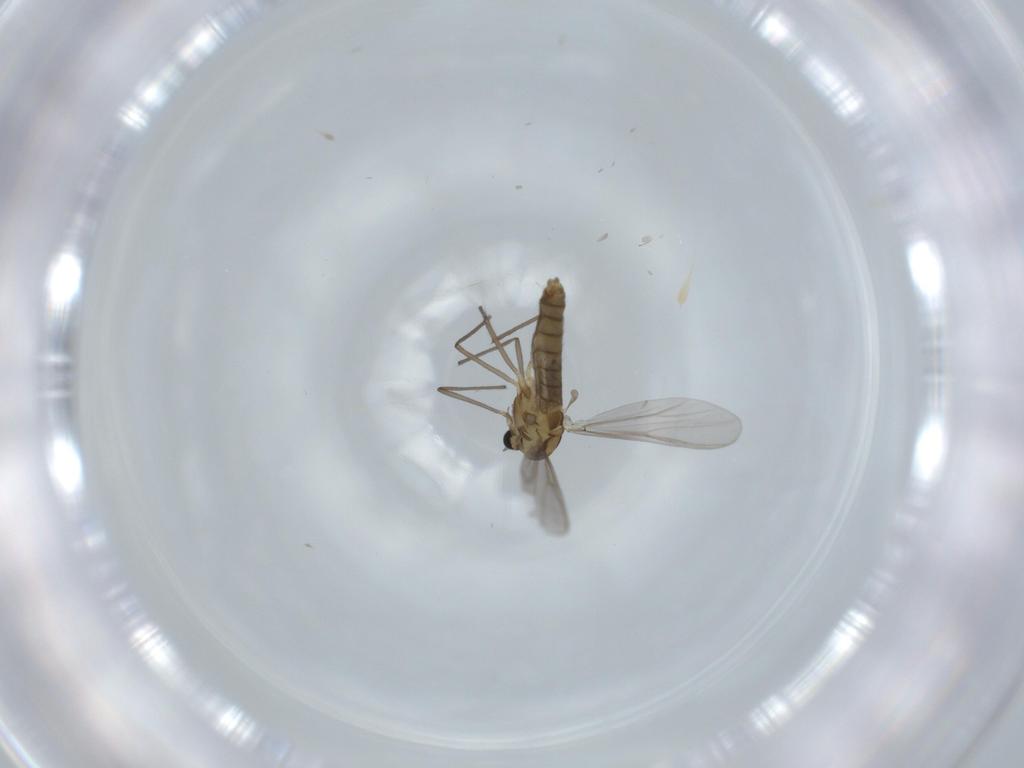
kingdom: Animalia
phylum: Arthropoda
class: Insecta
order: Diptera
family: Chironomidae
